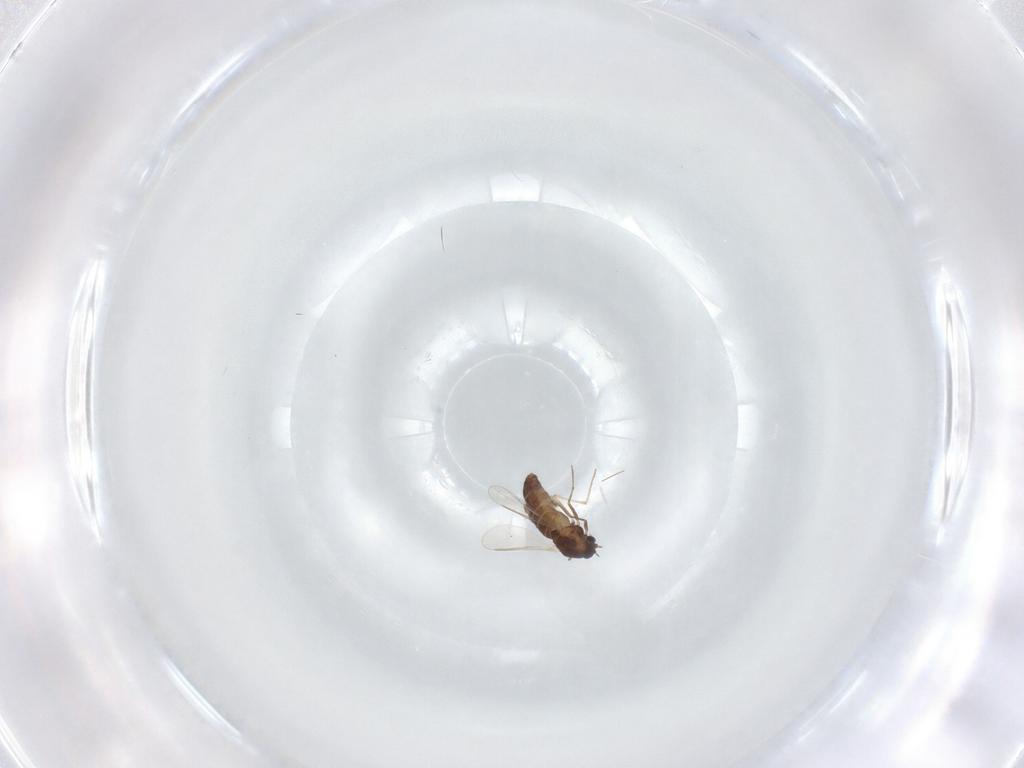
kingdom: Animalia
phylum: Arthropoda
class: Insecta
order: Diptera
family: Chironomidae
